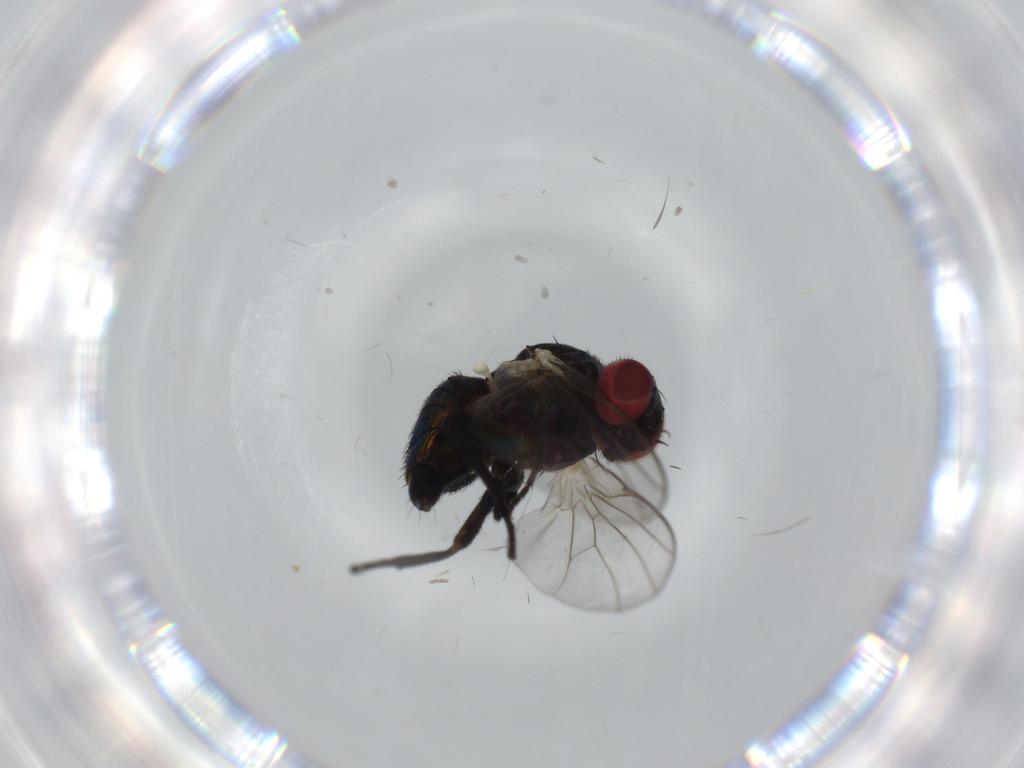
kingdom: Animalia
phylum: Arthropoda
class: Insecta
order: Diptera
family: Agromyzidae
